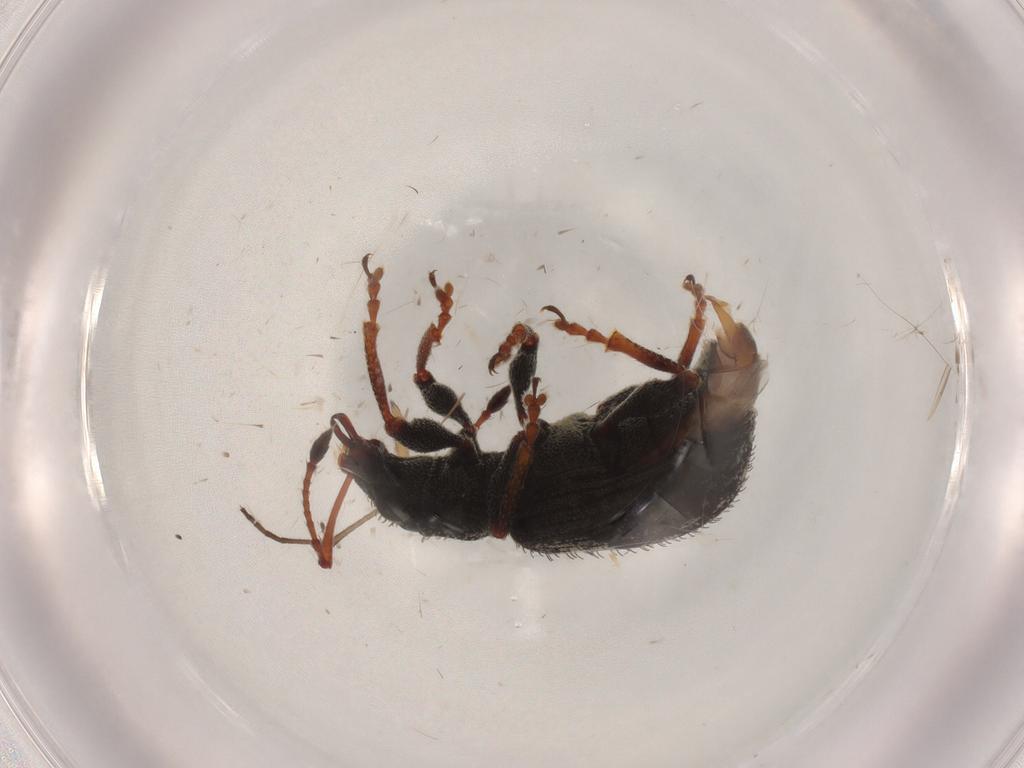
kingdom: Animalia
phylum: Arthropoda
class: Insecta
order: Coleoptera
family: Curculionidae
